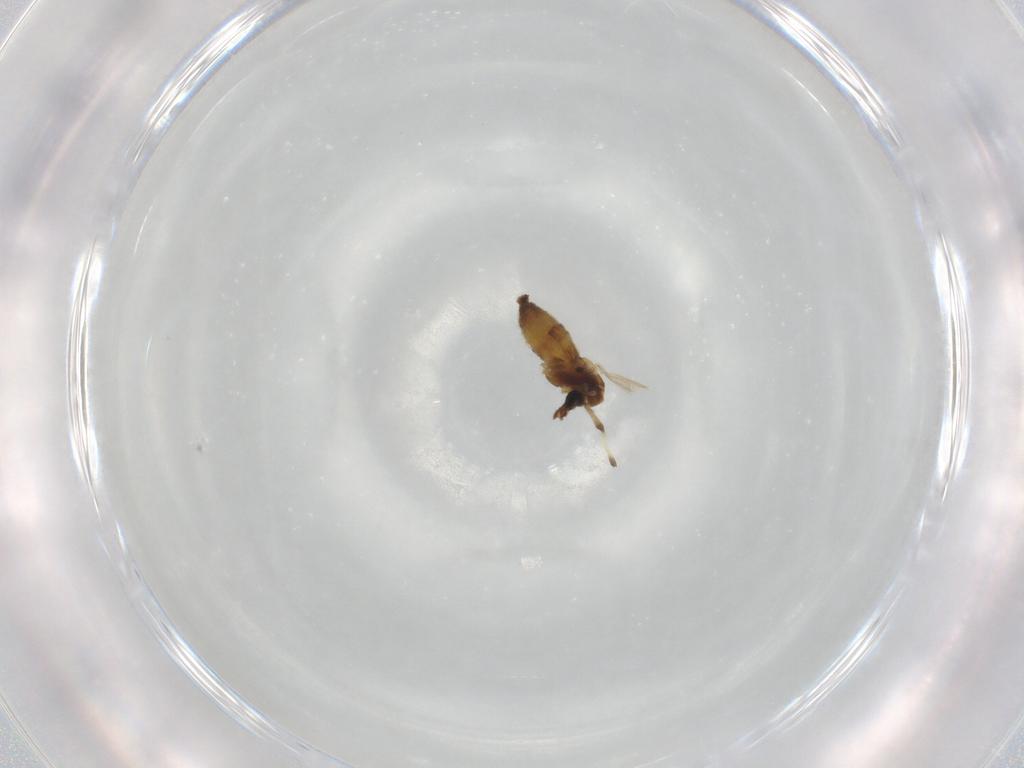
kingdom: Animalia
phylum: Arthropoda
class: Insecta
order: Diptera
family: Chironomidae
